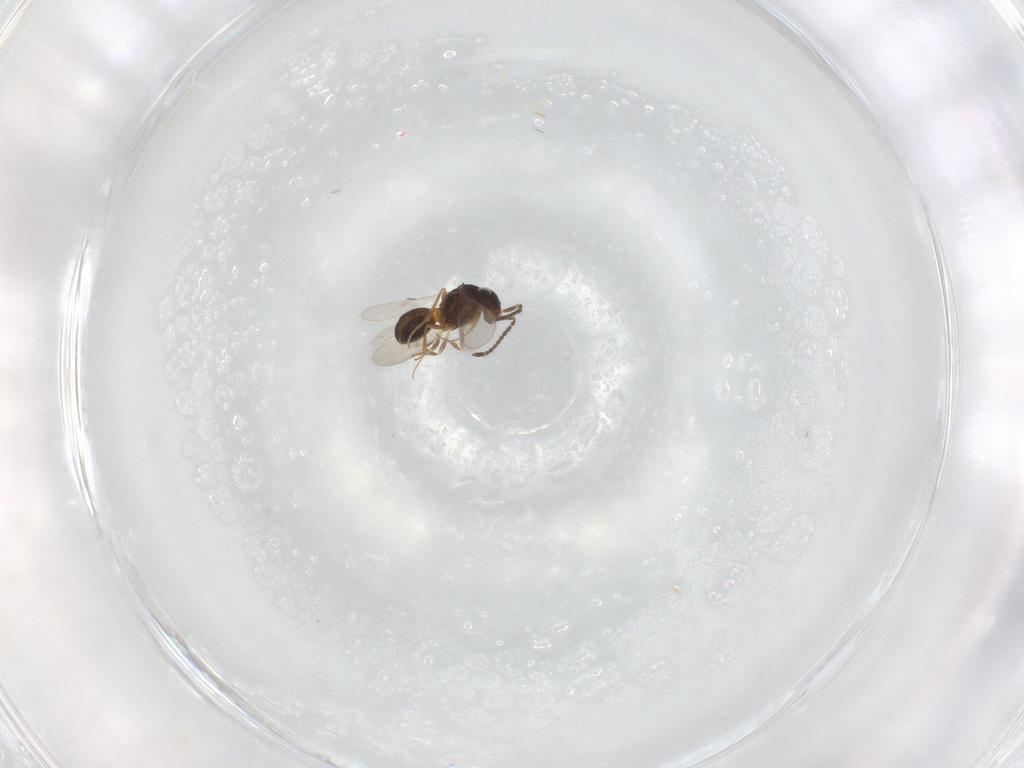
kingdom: Animalia
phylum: Arthropoda
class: Insecta
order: Hymenoptera
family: Scelionidae
